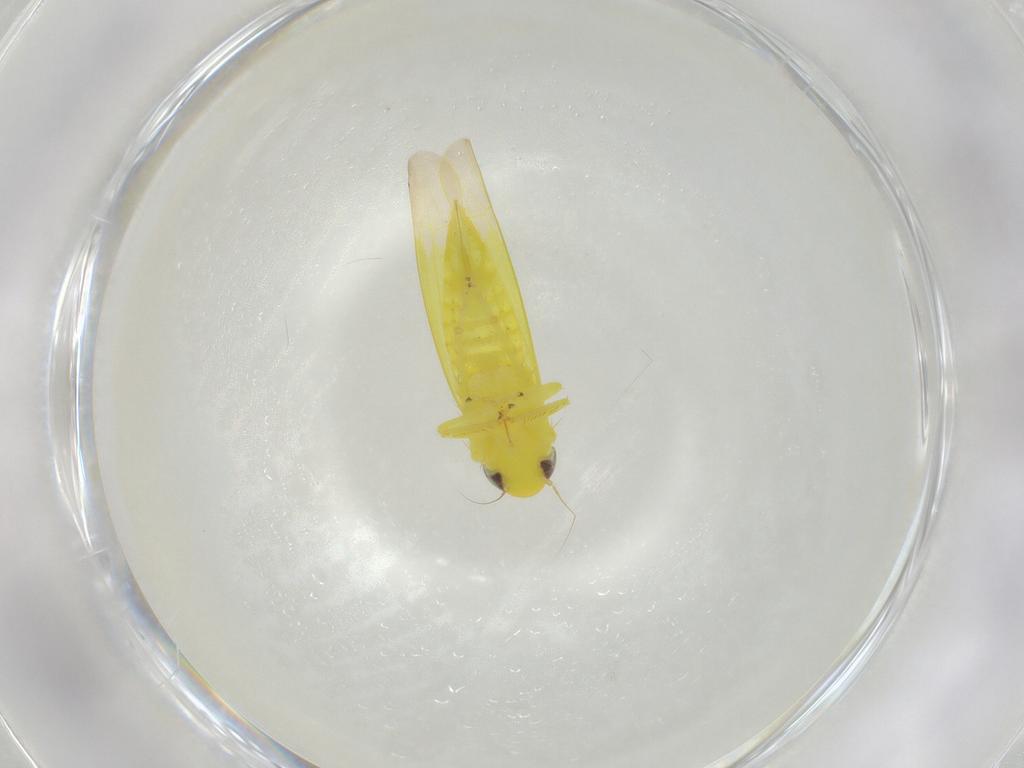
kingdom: Animalia
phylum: Arthropoda
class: Insecta
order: Hemiptera
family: Cicadellidae
